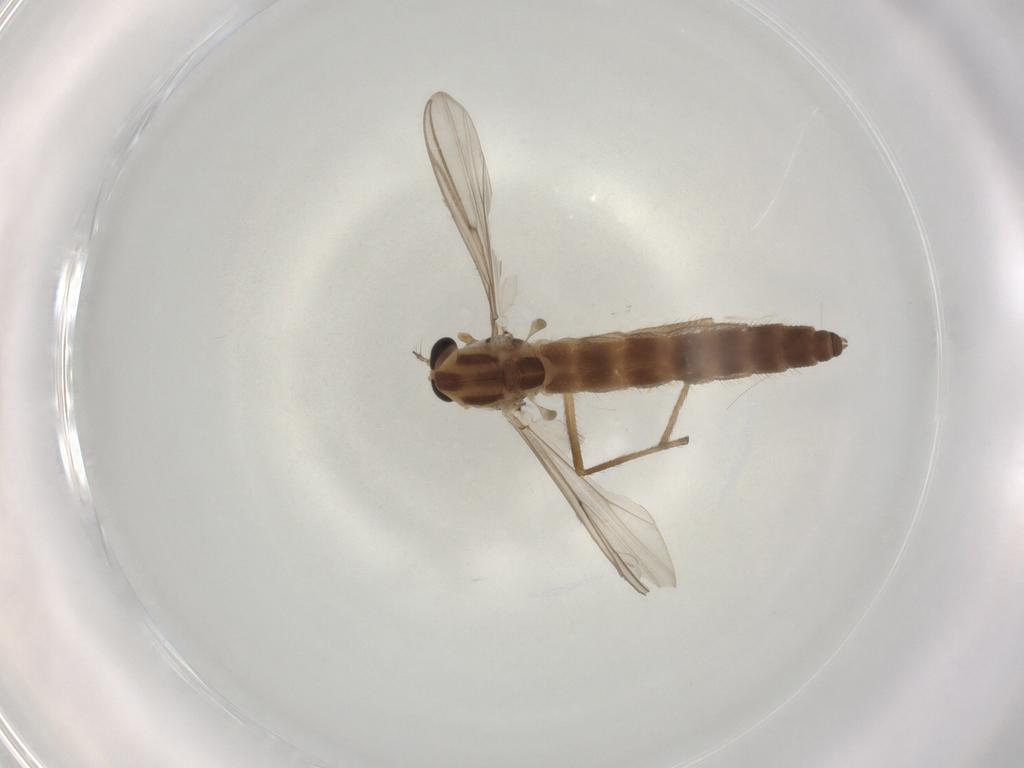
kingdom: Animalia
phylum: Arthropoda
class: Insecta
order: Diptera
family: Chironomidae
